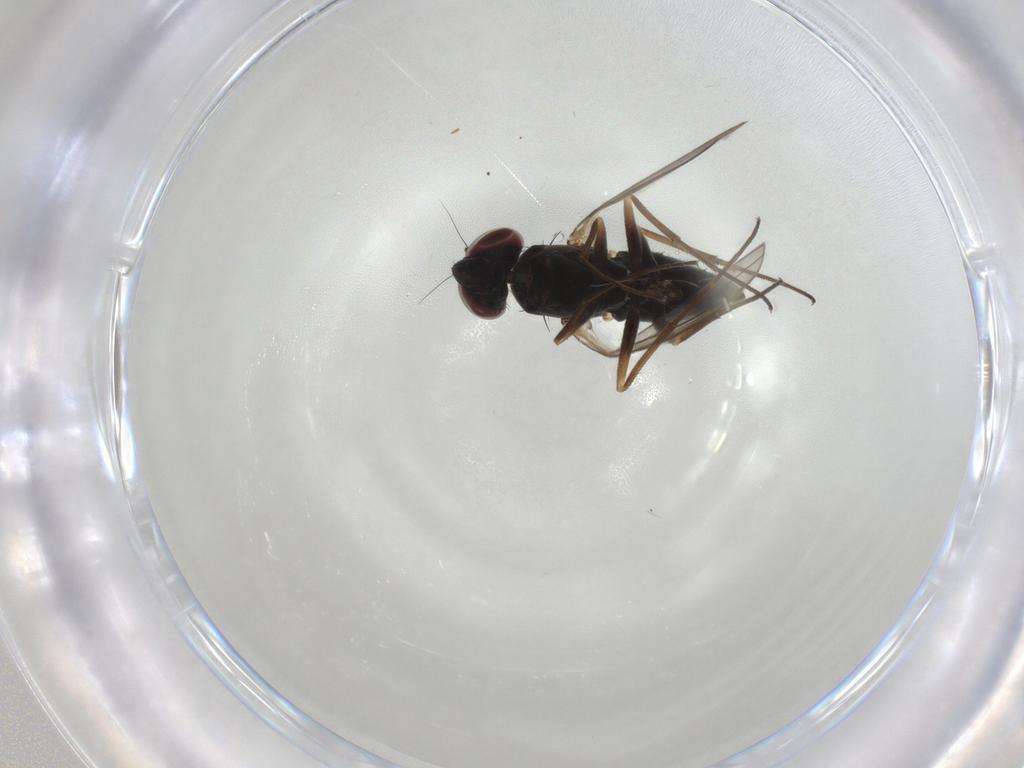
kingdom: Animalia
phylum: Arthropoda
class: Insecta
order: Diptera
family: Dolichopodidae
